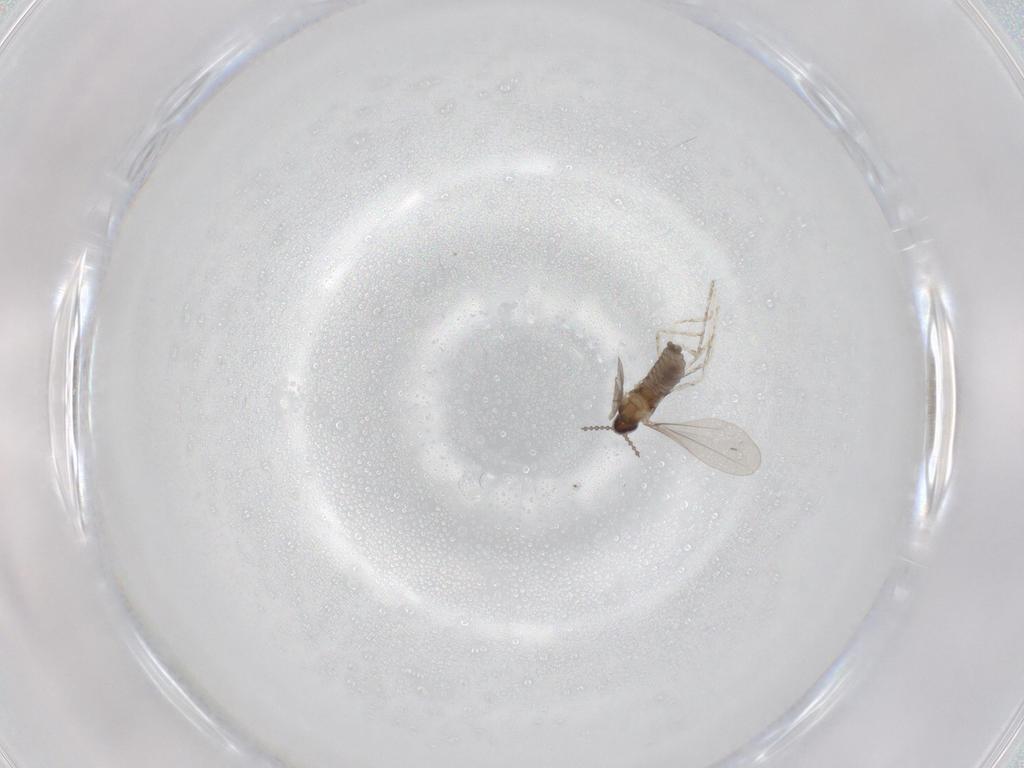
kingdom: Animalia
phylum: Arthropoda
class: Insecta
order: Diptera
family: Cecidomyiidae
